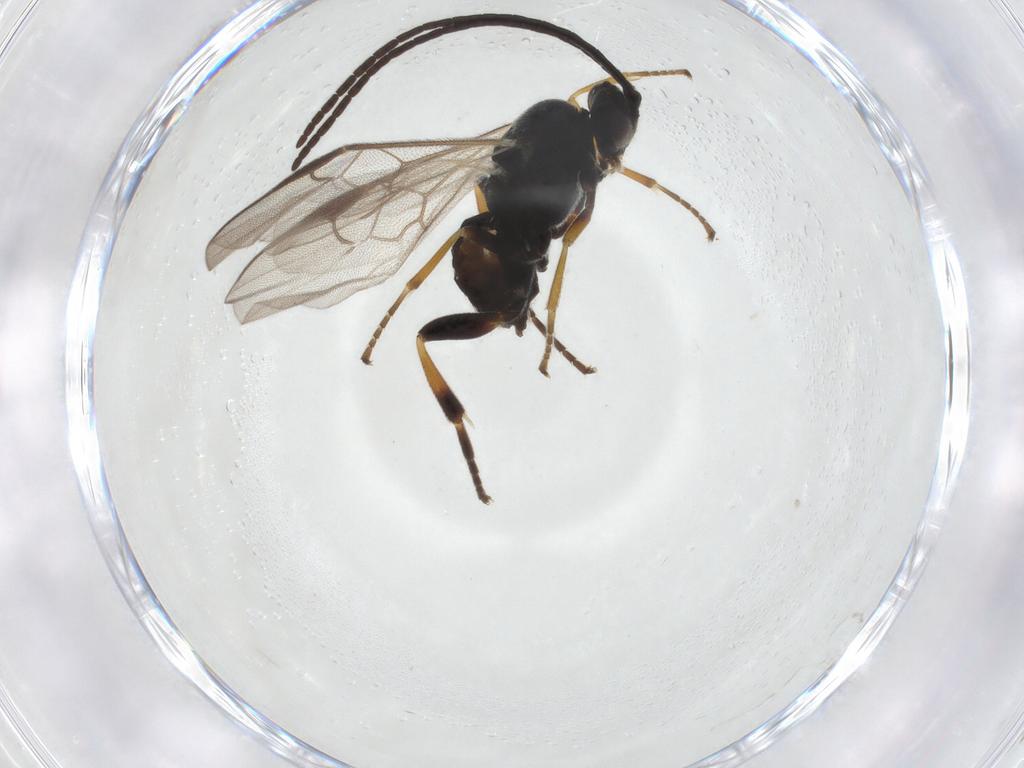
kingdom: Animalia
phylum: Arthropoda
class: Insecta
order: Hymenoptera
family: Braconidae
